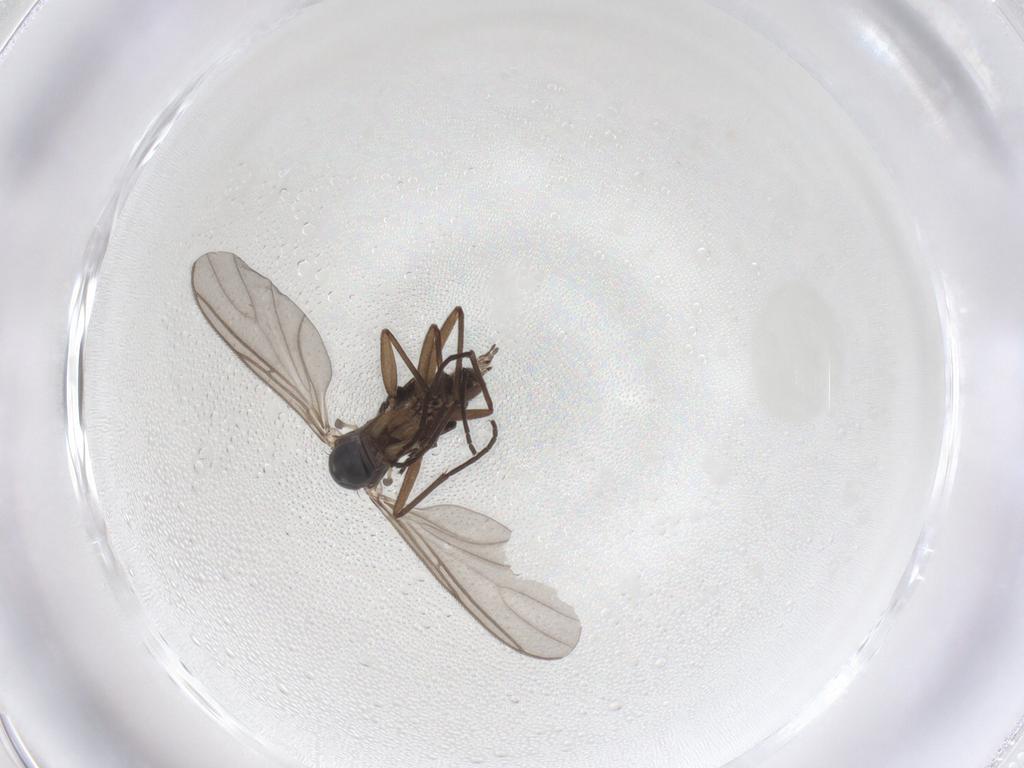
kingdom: Animalia
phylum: Arthropoda
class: Insecta
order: Diptera
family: Sciaridae
